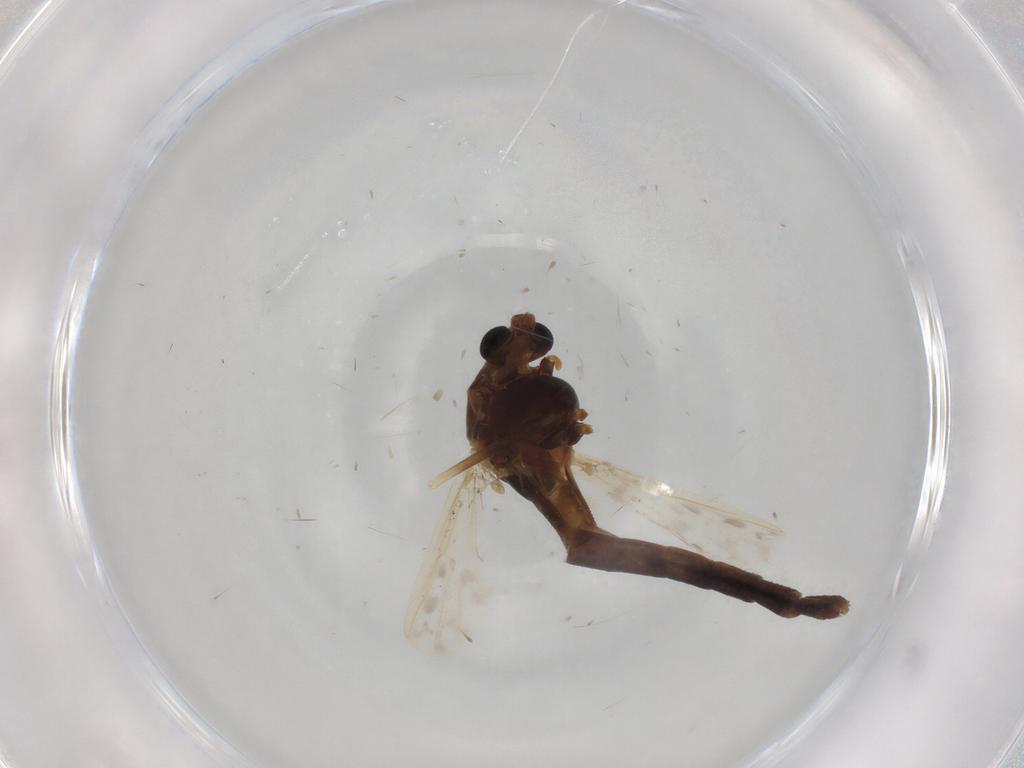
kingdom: Animalia
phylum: Arthropoda
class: Insecta
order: Diptera
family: Chironomidae
